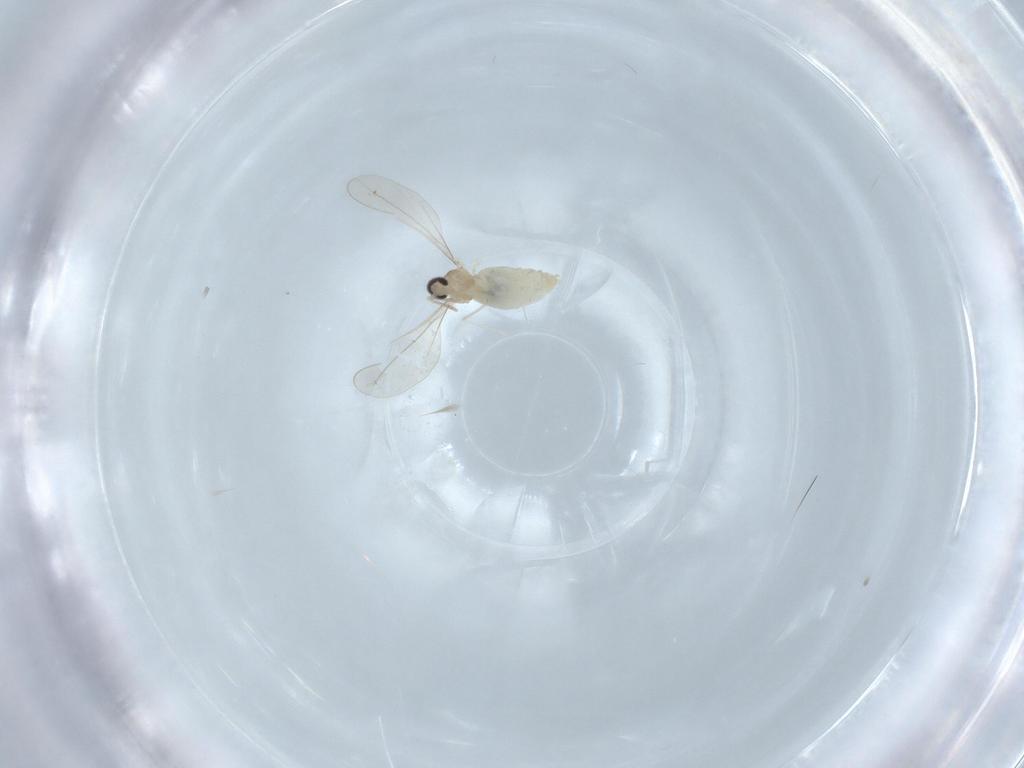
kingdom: Animalia
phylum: Arthropoda
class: Insecta
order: Diptera
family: Cecidomyiidae
